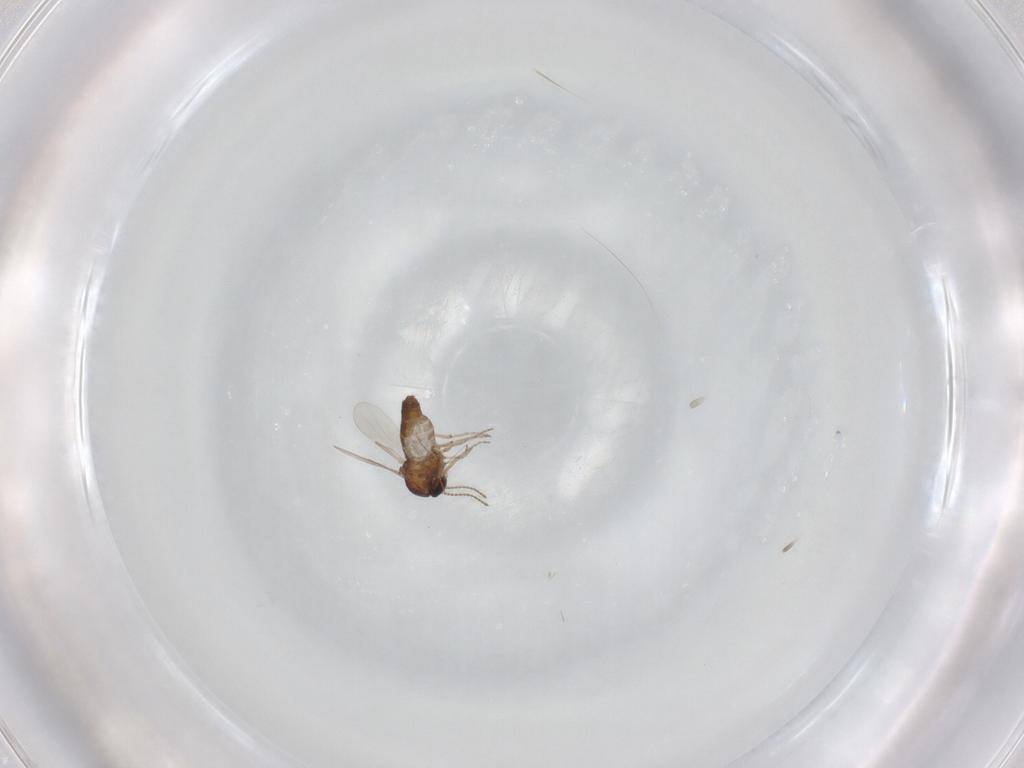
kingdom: Animalia
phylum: Arthropoda
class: Insecta
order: Diptera
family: Ceratopogonidae
